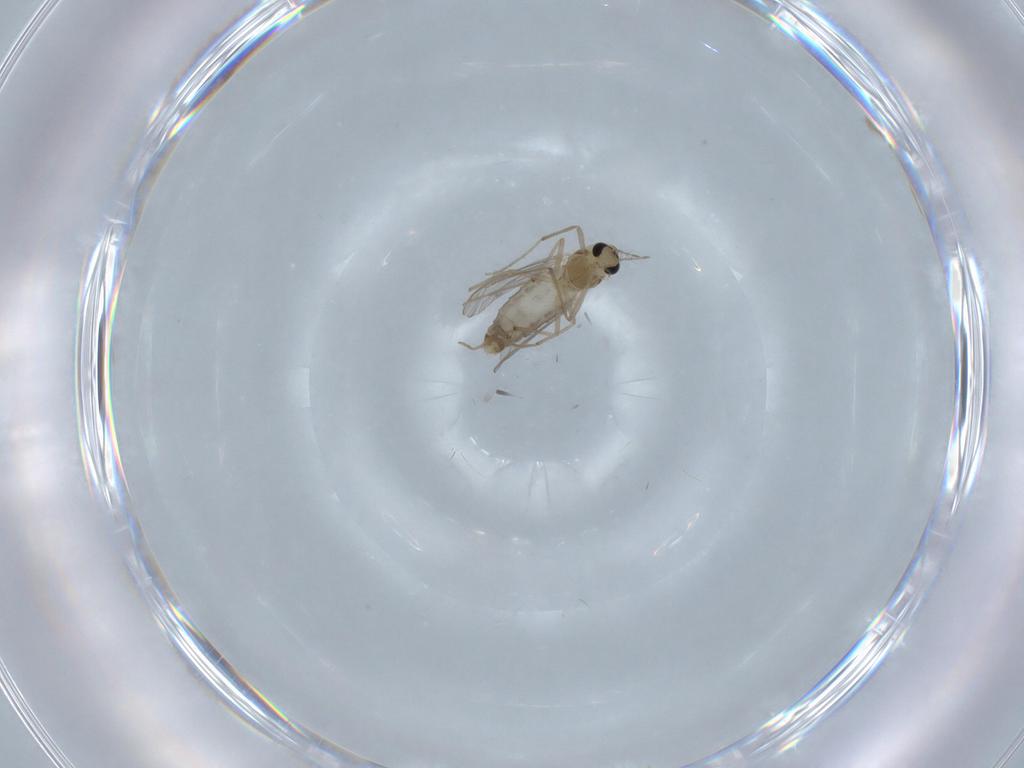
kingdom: Animalia
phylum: Arthropoda
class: Insecta
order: Diptera
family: Chironomidae
